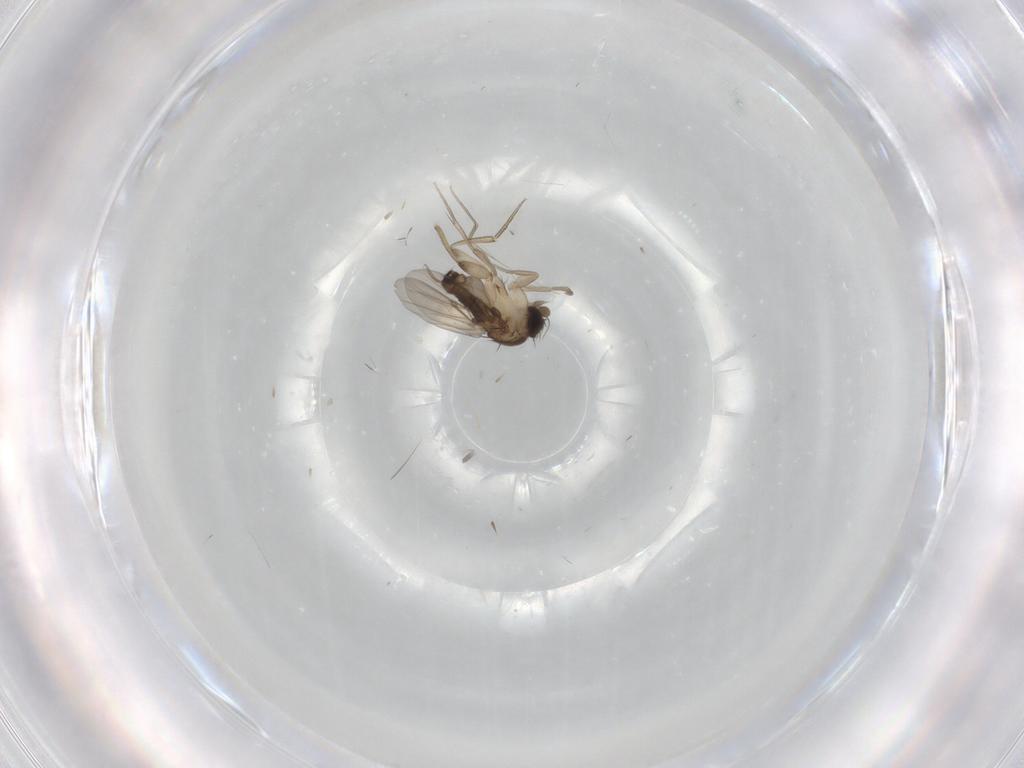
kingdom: Animalia
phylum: Arthropoda
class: Insecta
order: Diptera
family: Phoridae
